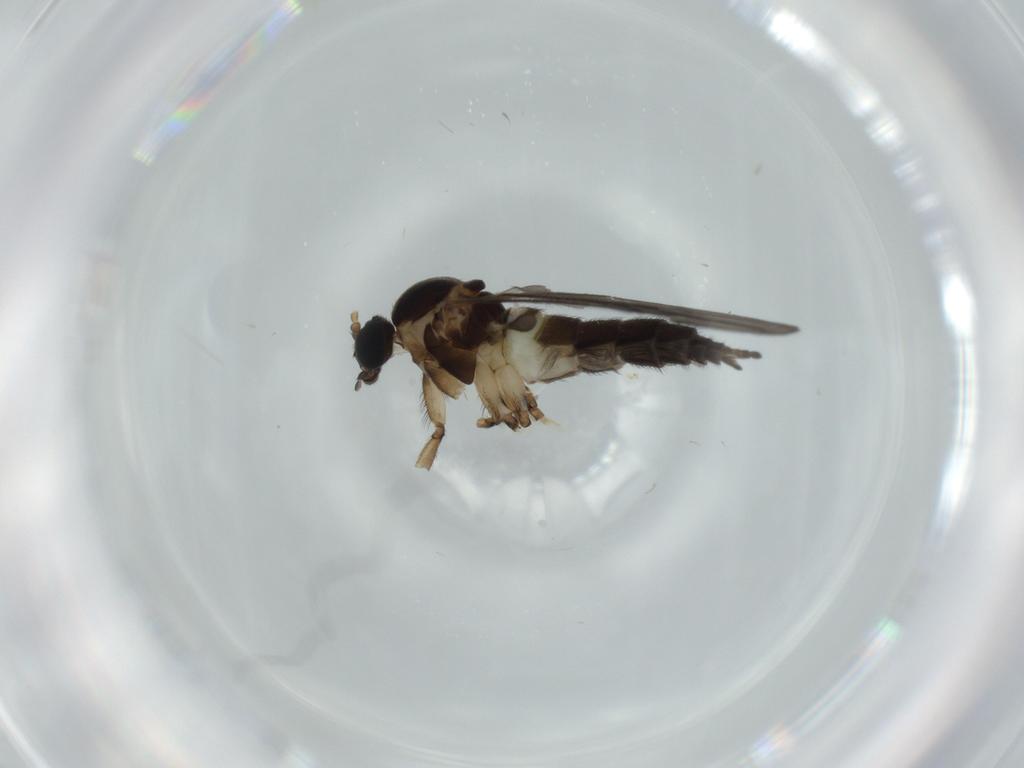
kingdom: Animalia
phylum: Arthropoda
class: Insecta
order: Diptera
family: Sciaridae
